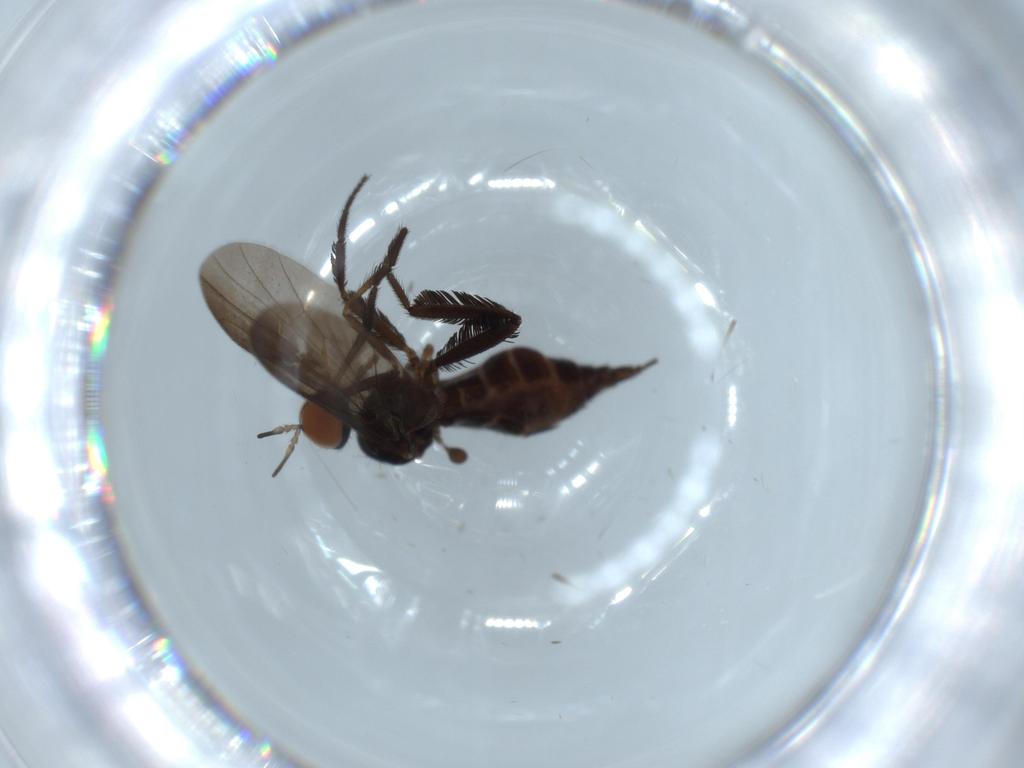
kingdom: Animalia
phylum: Arthropoda
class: Insecta
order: Diptera
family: Empididae
